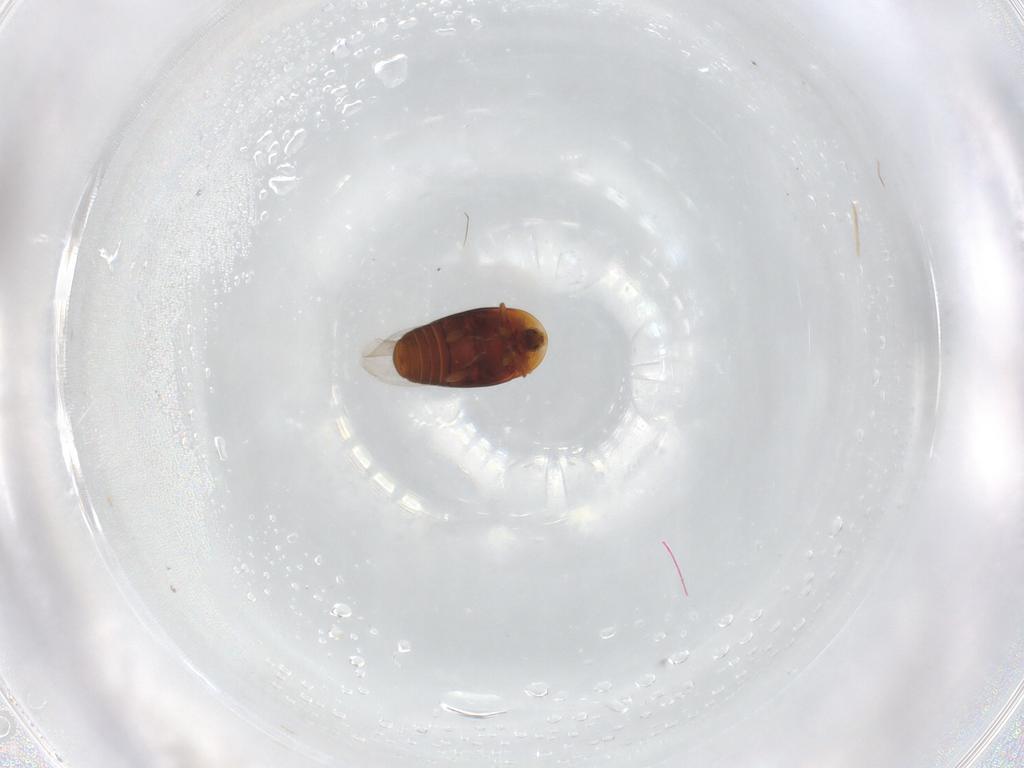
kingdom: Animalia
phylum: Arthropoda
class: Insecta
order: Coleoptera
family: Corylophidae
